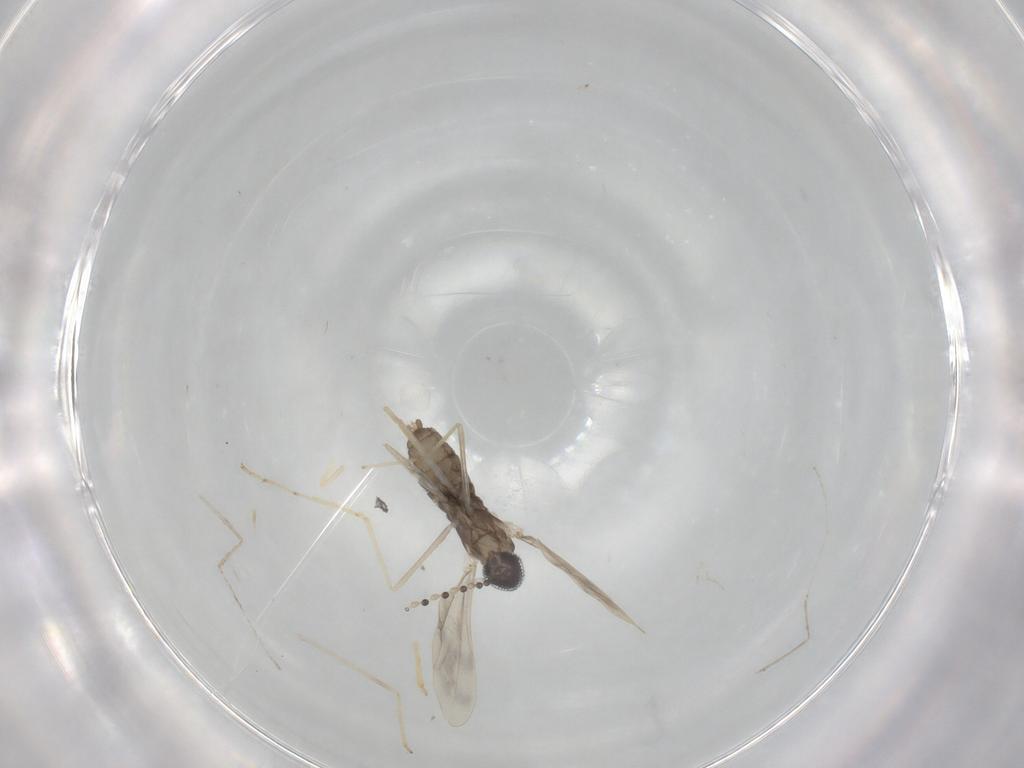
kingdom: Animalia
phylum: Arthropoda
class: Insecta
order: Diptera
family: Cecidomyiidae
